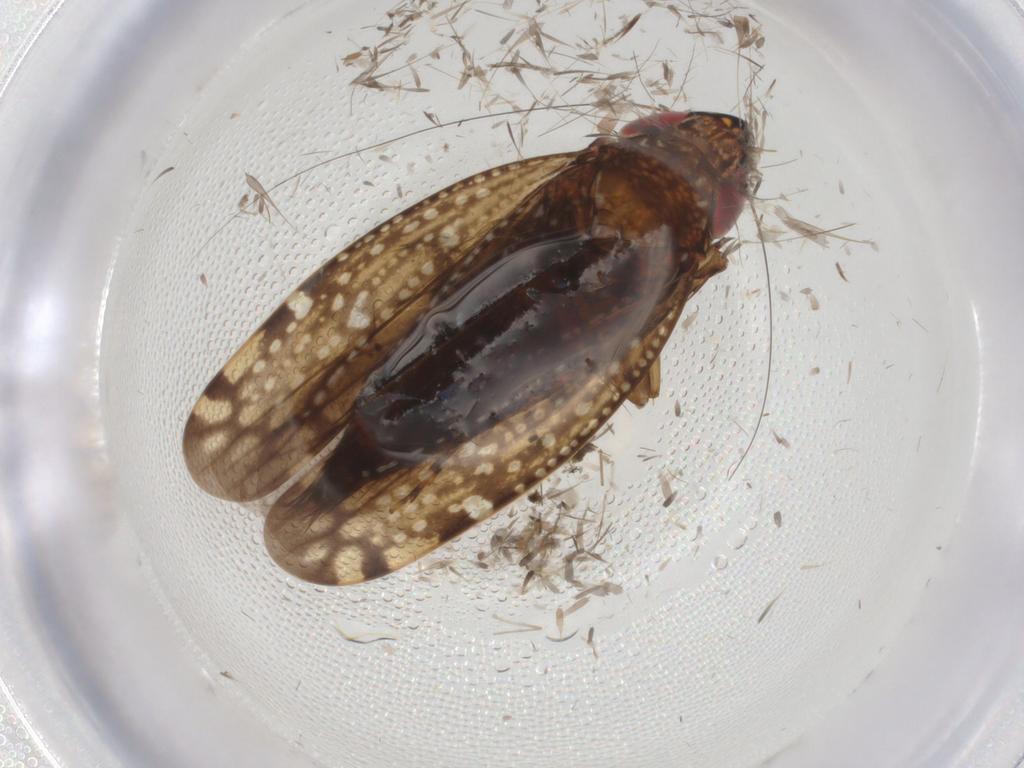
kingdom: Animalia
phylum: Arthropoda
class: Insecta
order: Hemiptera
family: Cicadellidae
